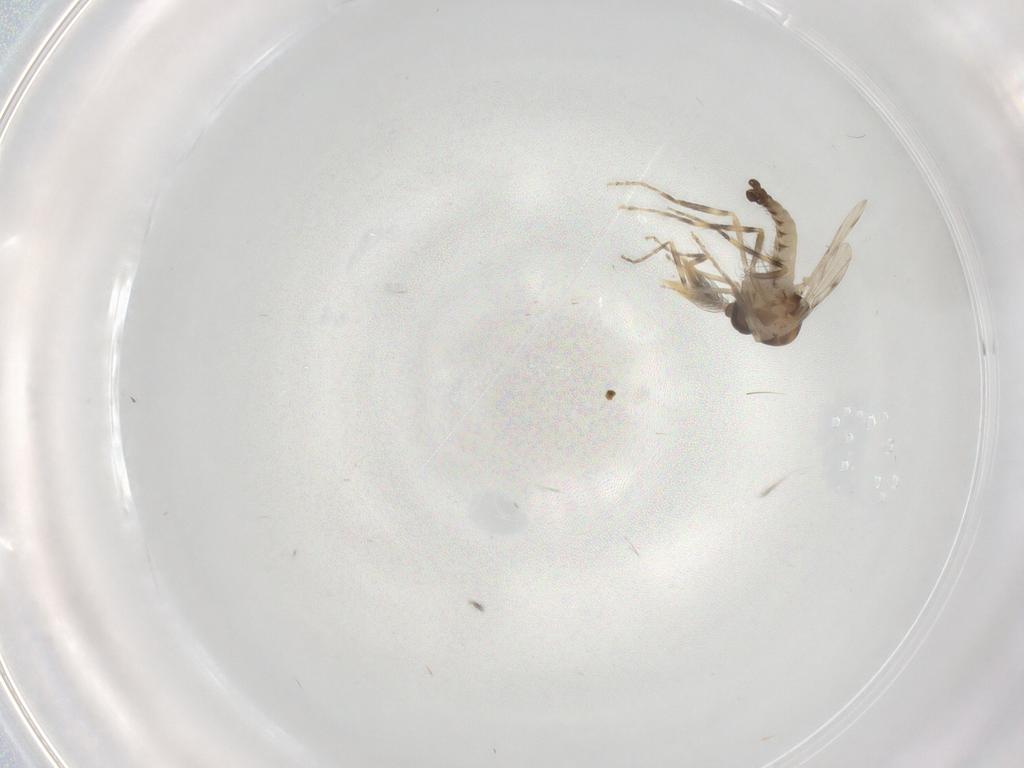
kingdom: Animalia
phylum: Arthropoda
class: Insecta
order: Diptera
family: Ceratopogonidae
